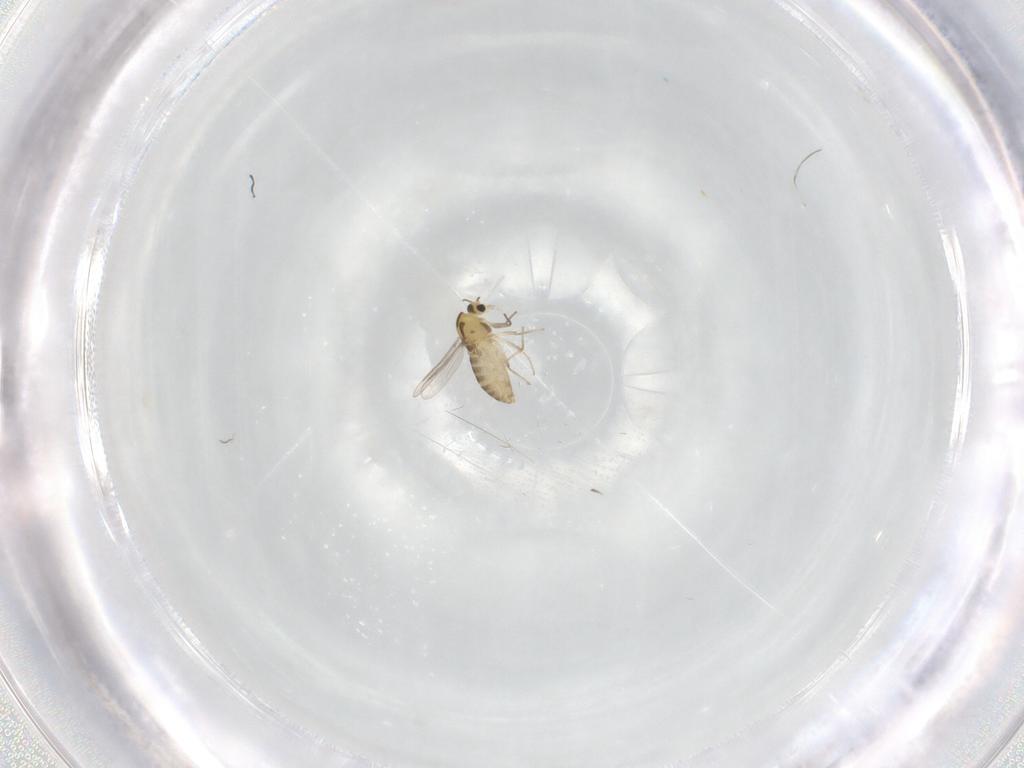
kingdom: Animalia
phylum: Arthropoda
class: Insecta
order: Diptera
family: Chironomidae
